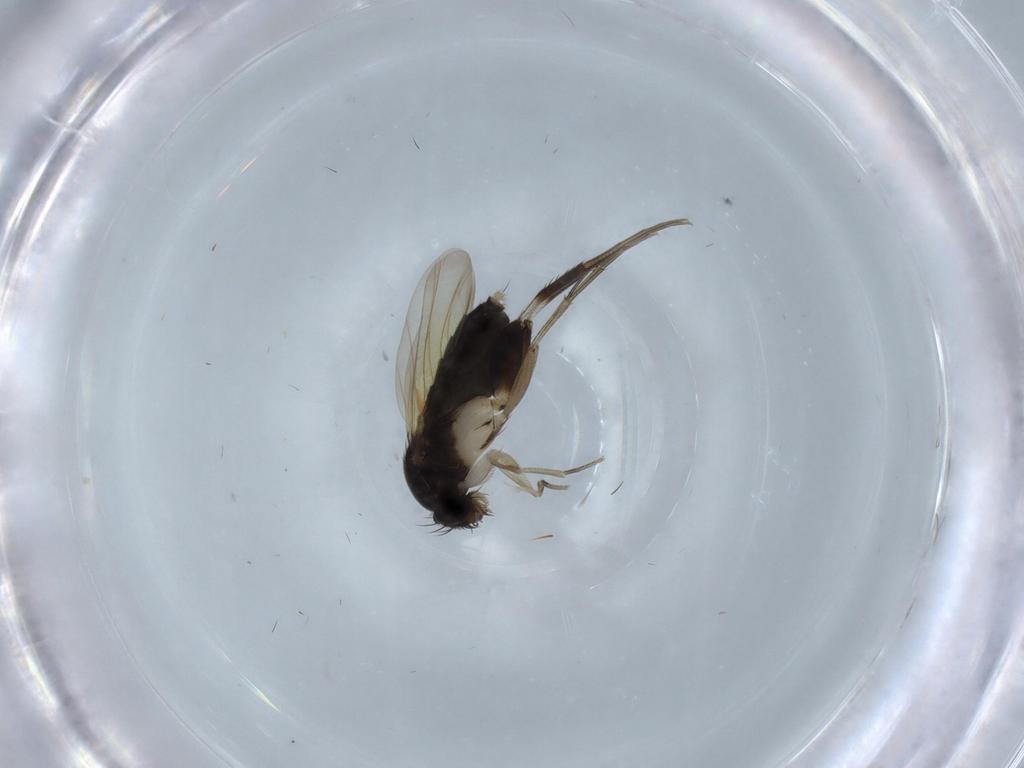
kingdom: Animalia
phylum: Arthropoda
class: Insecta
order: Diptera
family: Phoridae
